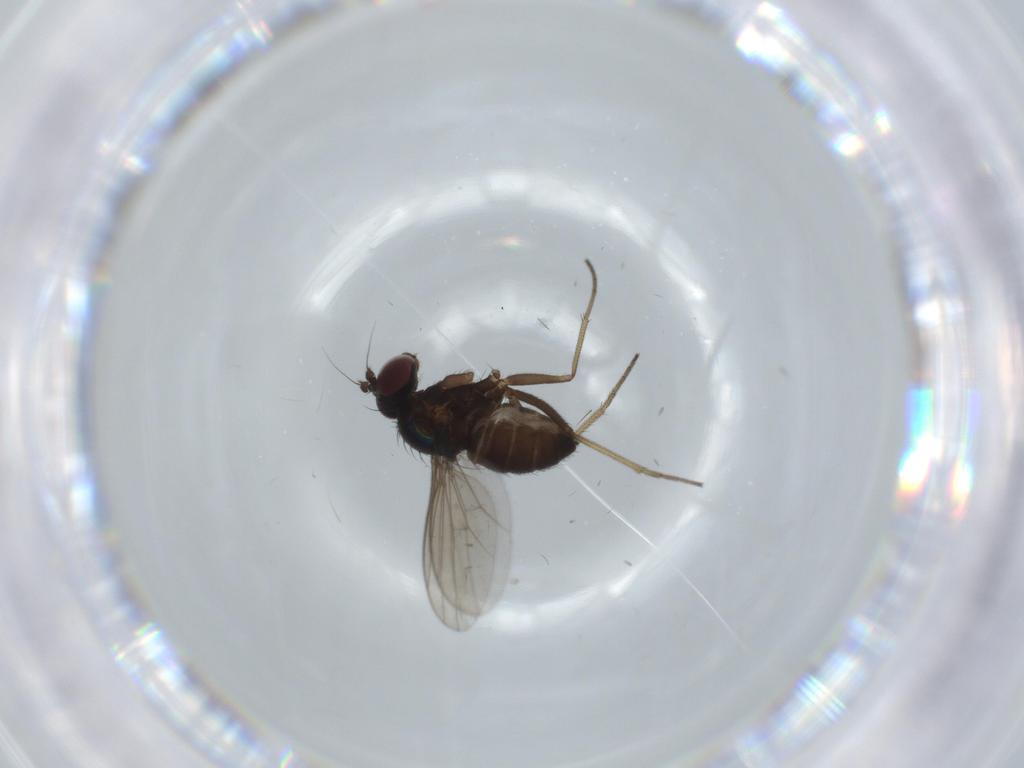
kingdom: Animalia
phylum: Arthropoda
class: Insecta
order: Diptera
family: Dolichopodidae
